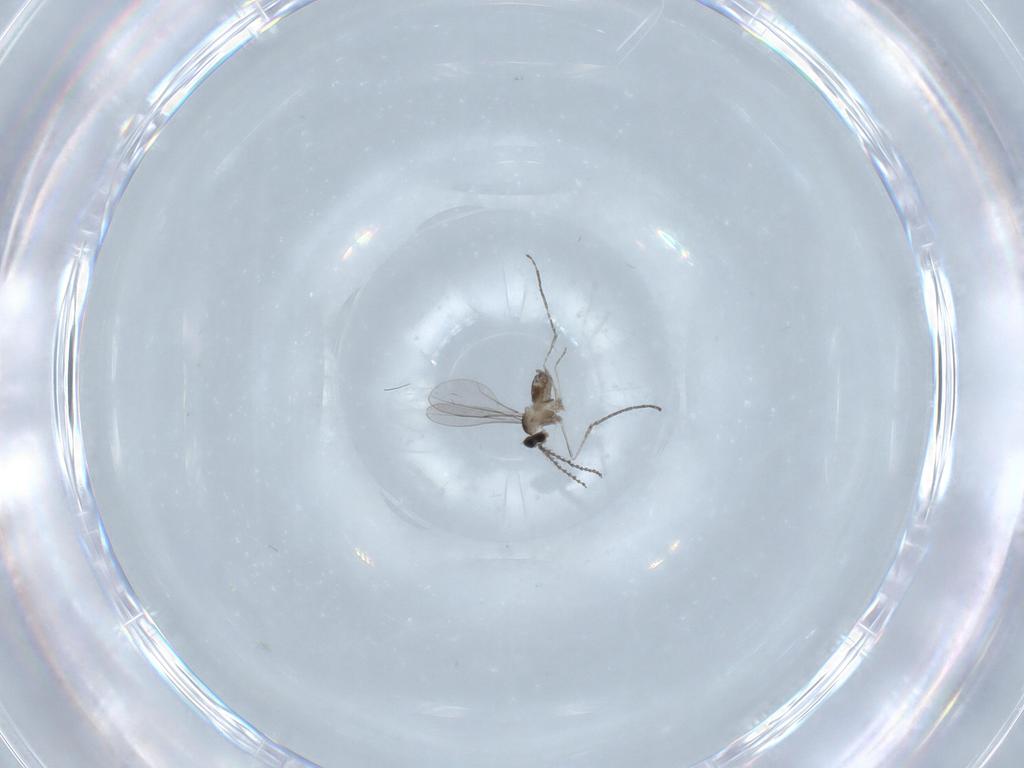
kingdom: Animalia
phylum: Arthropoda
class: Insecta
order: Diptera
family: Cecidomyiidae
